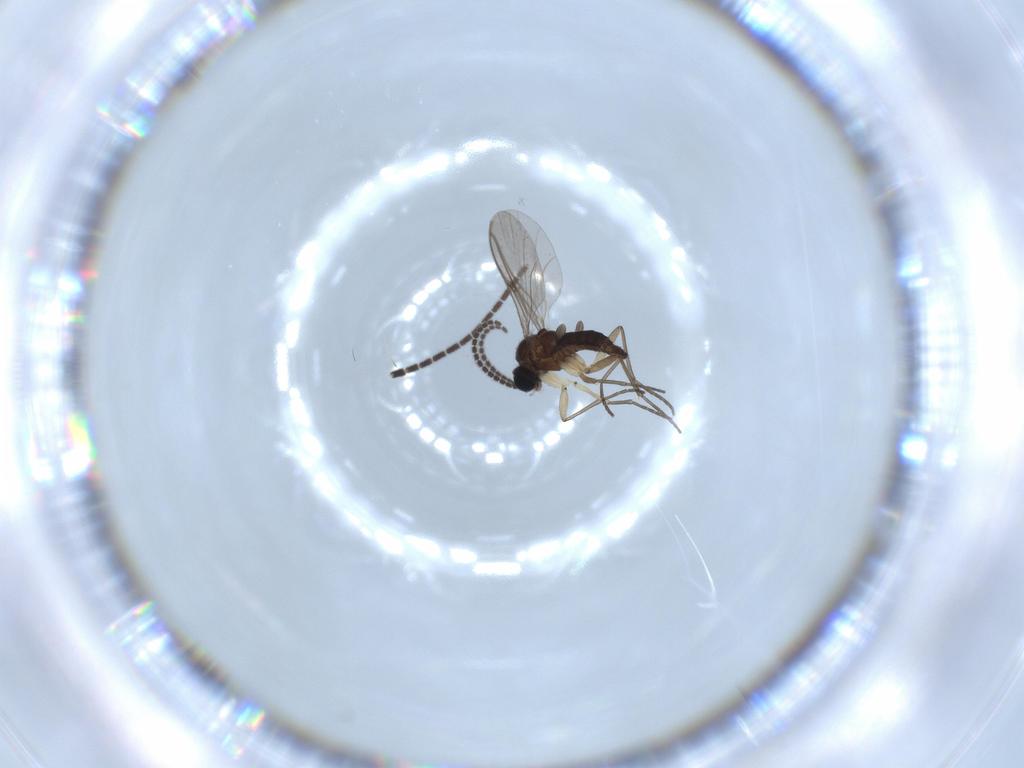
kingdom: Animalia
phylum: Arthropoda
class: Insecta
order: Diptera
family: Sciaridae
